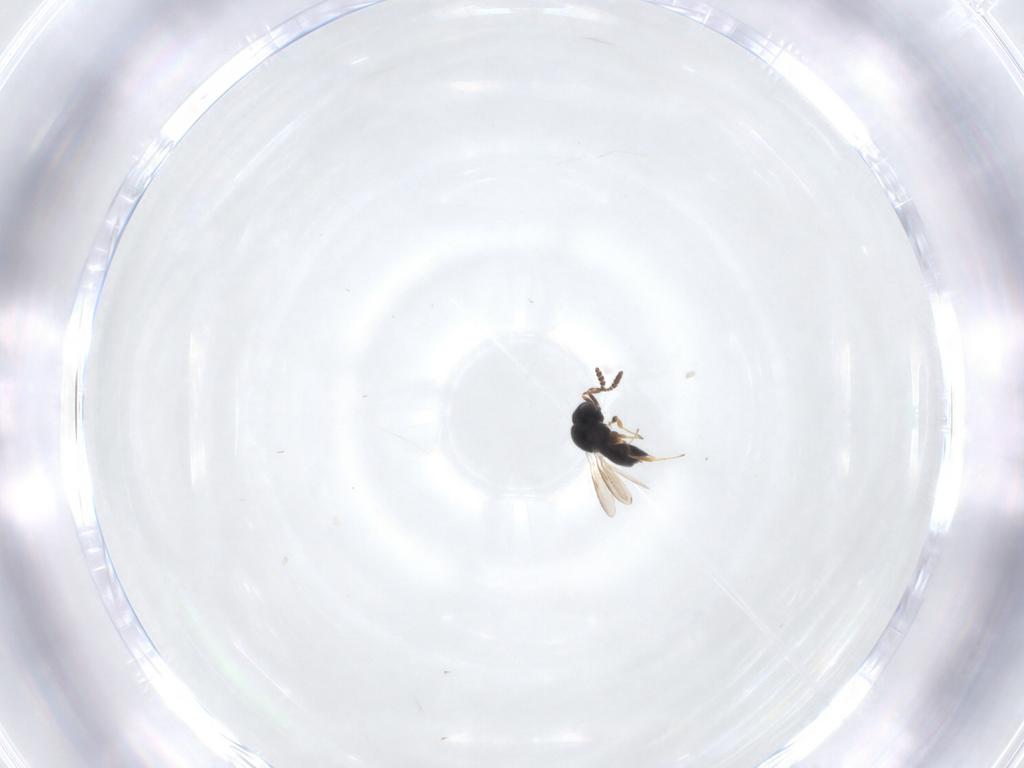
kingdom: Animalia
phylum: Arthropoda
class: Insecta
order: Hymenoptera
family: Scelionidae
